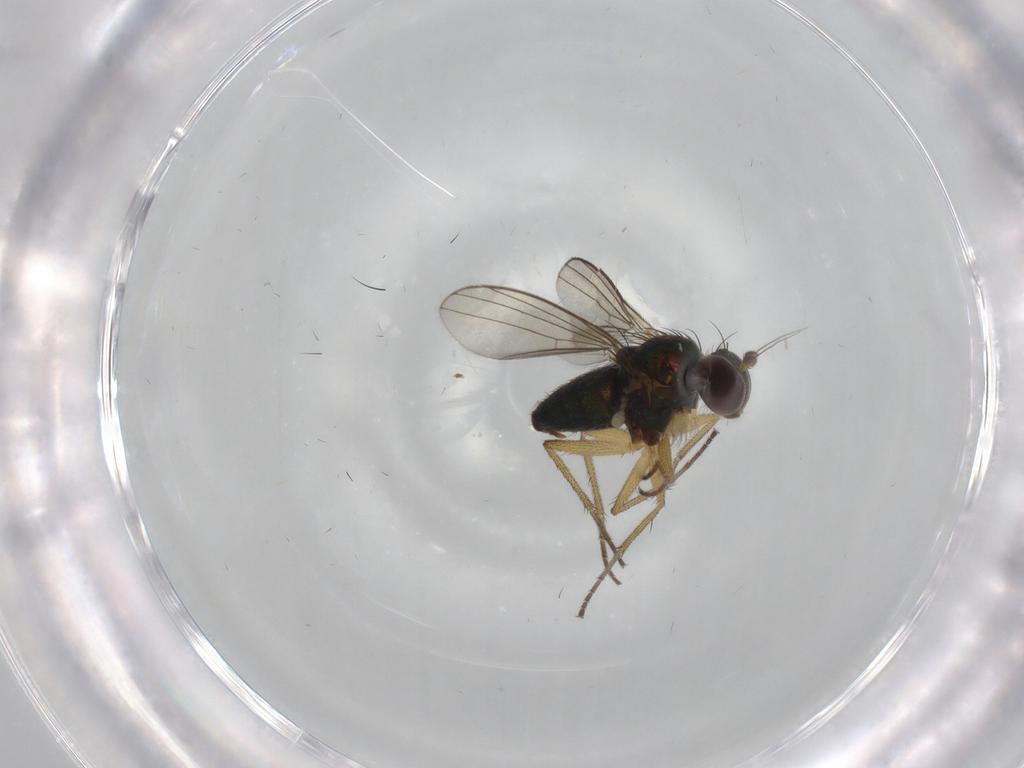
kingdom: Animalia
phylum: Arthropoda
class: Insecta
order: Diptera
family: Dolichopodidae
